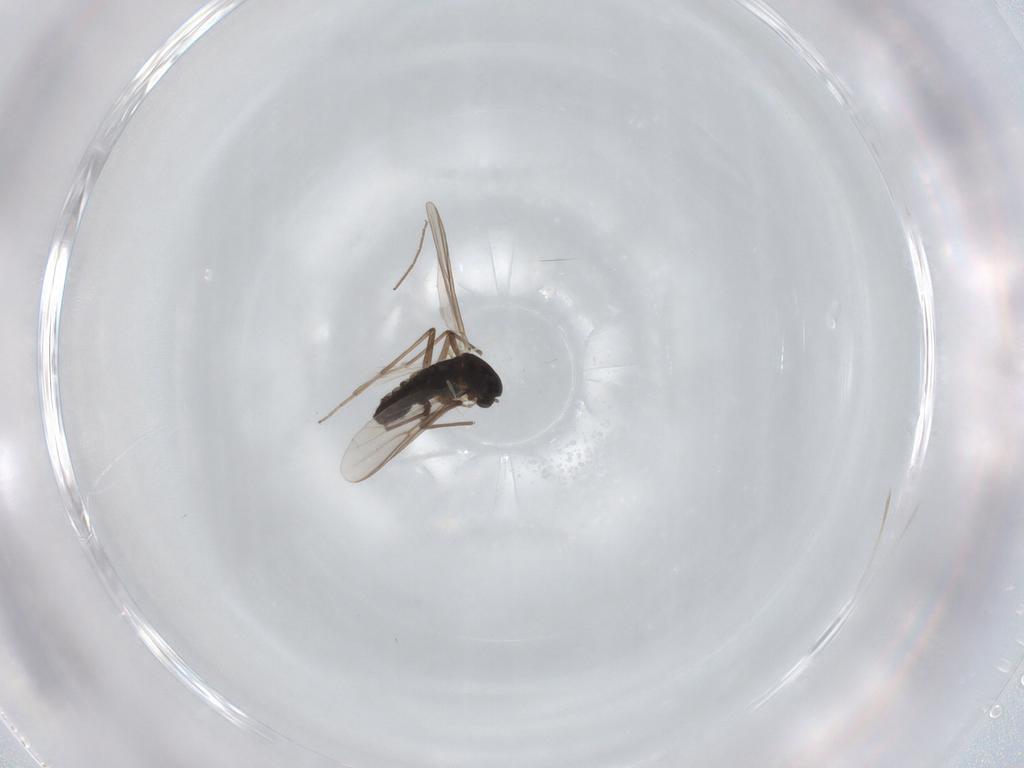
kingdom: Animalia
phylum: Arthropoda
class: Insecta
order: Diptera
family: Chironomidae
